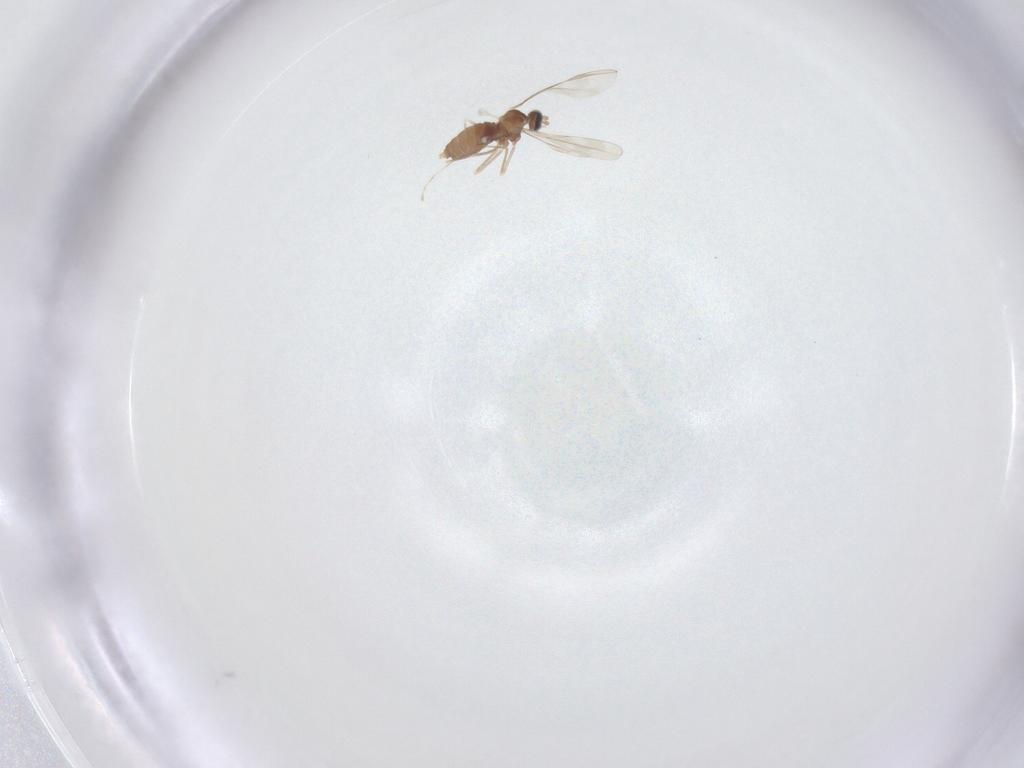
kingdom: Animalia
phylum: Arthropoda
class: Insecta
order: Diptera
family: Cecidomyiidae
